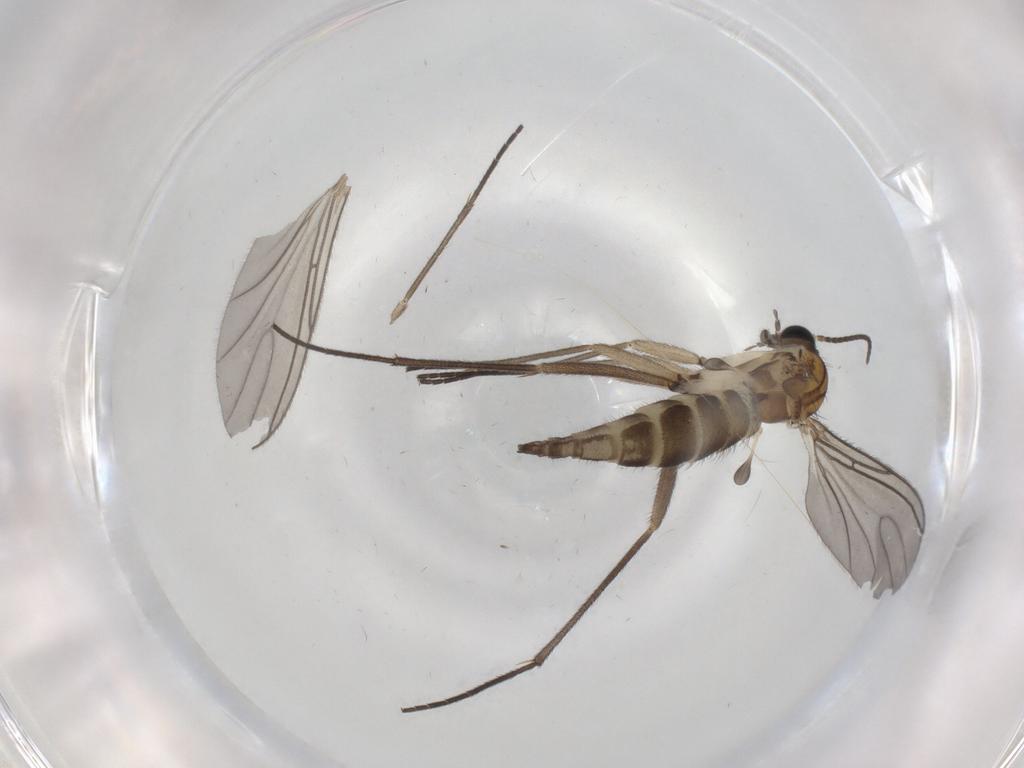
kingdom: Animalia
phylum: Arthropoda
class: Insecta
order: Diptera
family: Sciaridae
